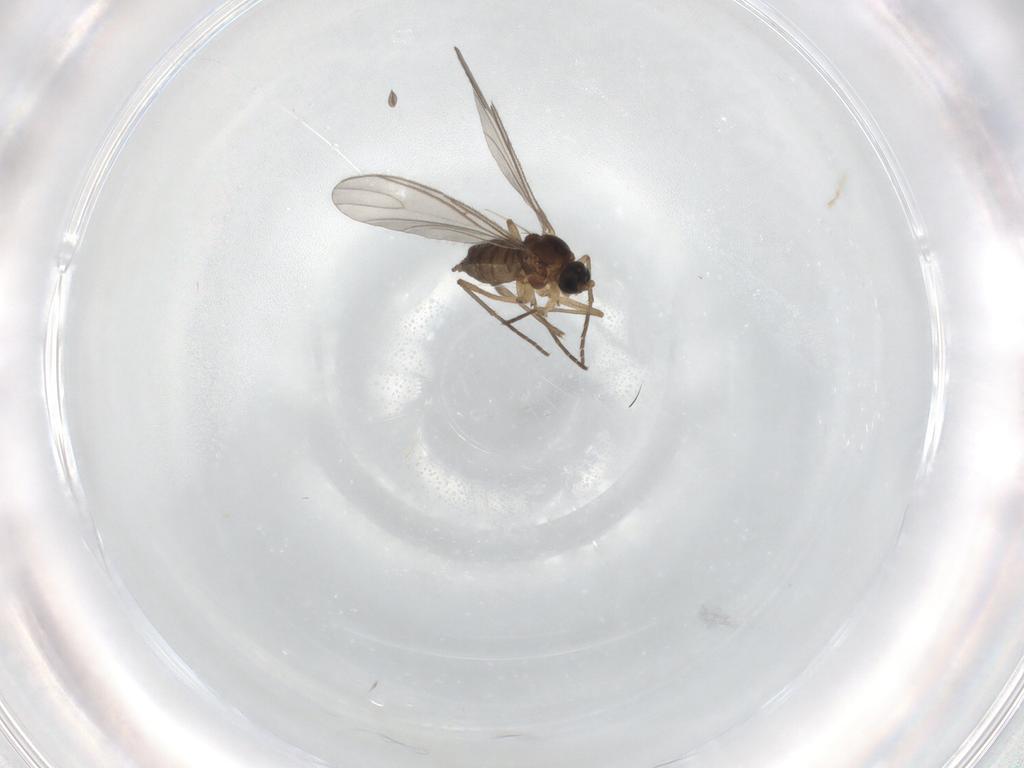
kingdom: Animalia
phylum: Arthropoda
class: Insecta
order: Diptera
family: Sciaridae
